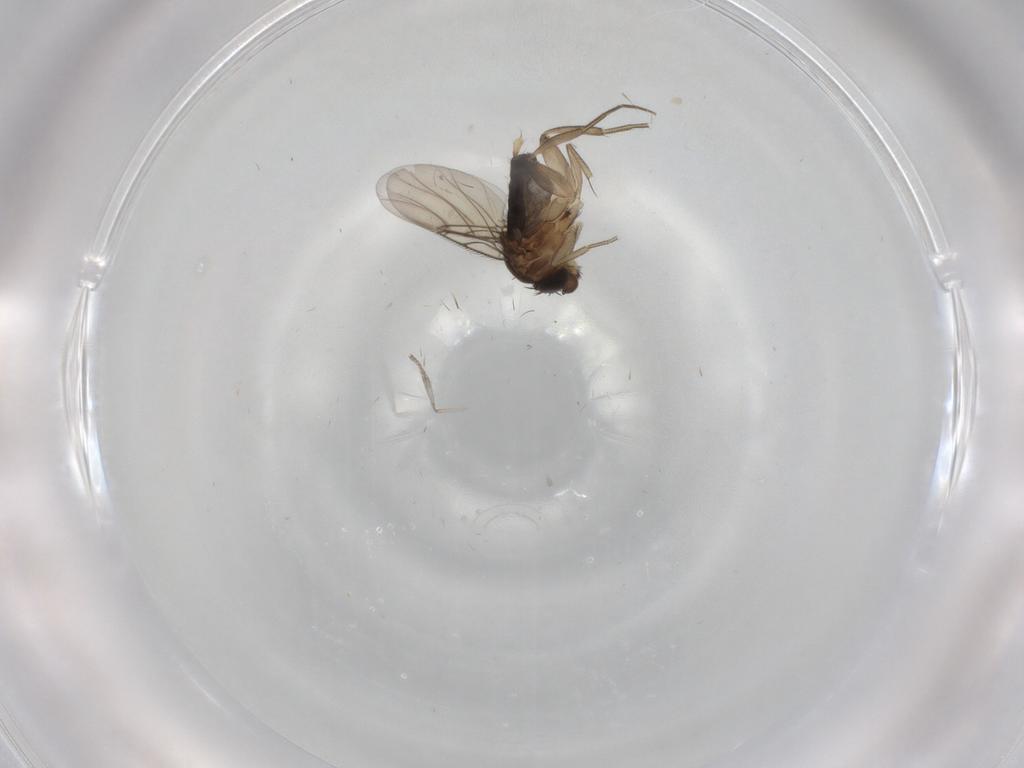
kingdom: Animalia
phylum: Arthropoda
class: Insecta
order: Diptera
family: Phoridae
